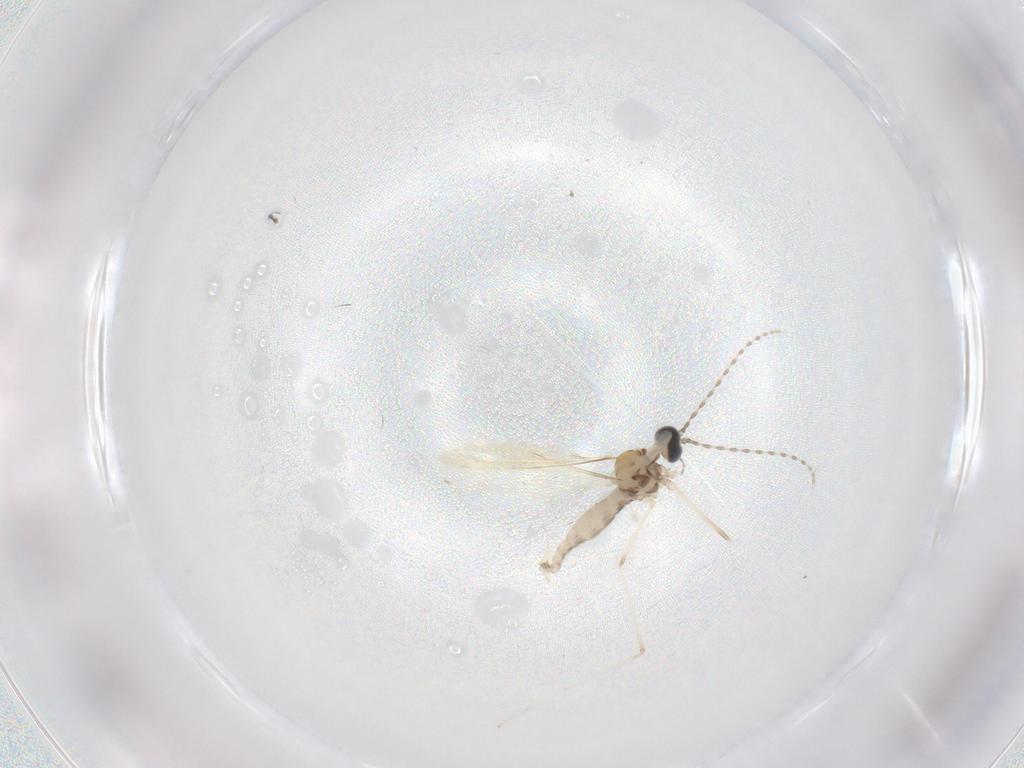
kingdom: Animalia
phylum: Arthropoda
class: Insecta
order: Diptera
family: Cecidomyiidae
